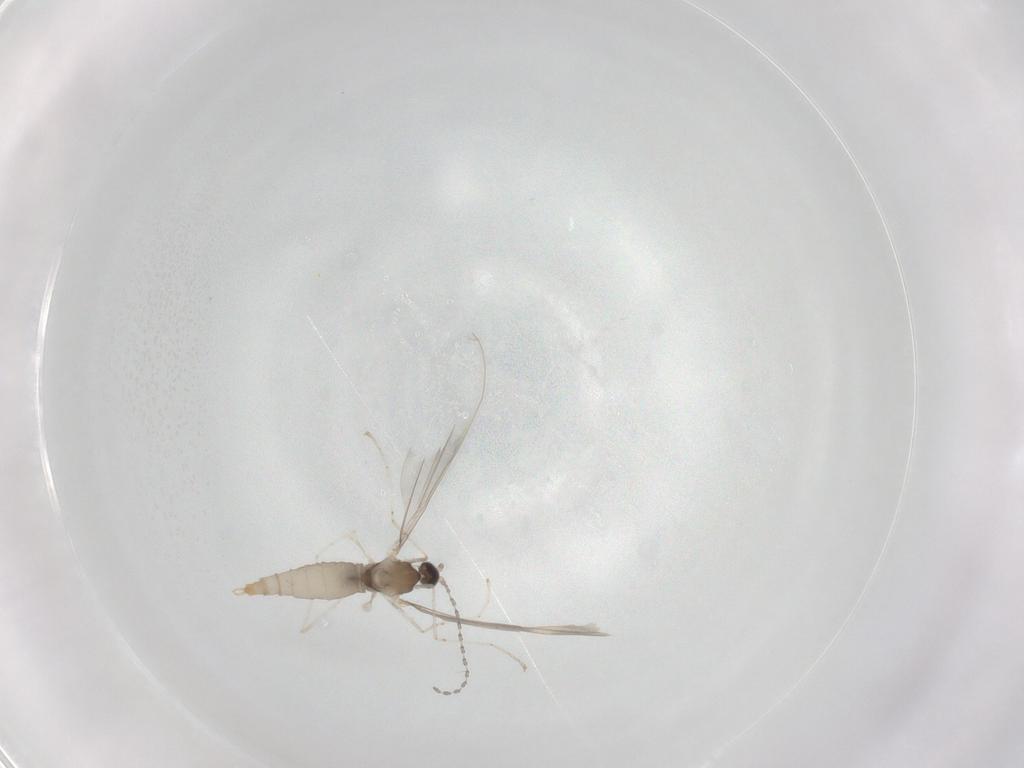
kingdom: Animalia
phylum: Arthropoda
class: Insecta
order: Diptera
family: Cecidomyiidae
